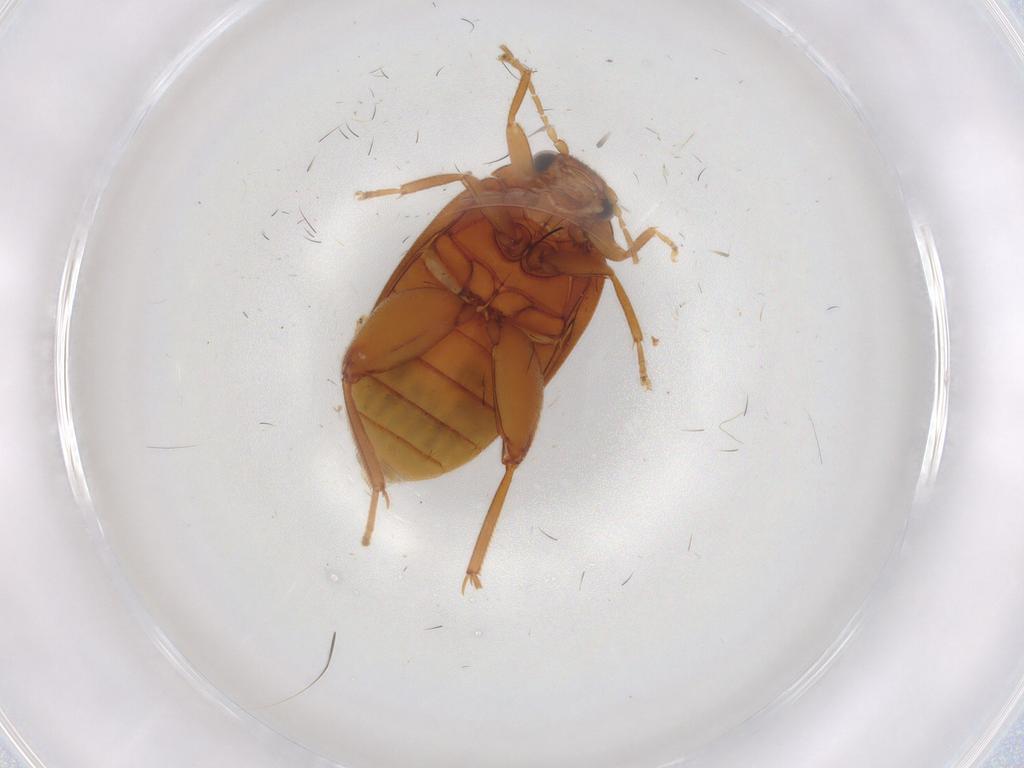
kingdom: Animalia
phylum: Arthropoda
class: Insecta
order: Coleoptera
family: Scirtidae
